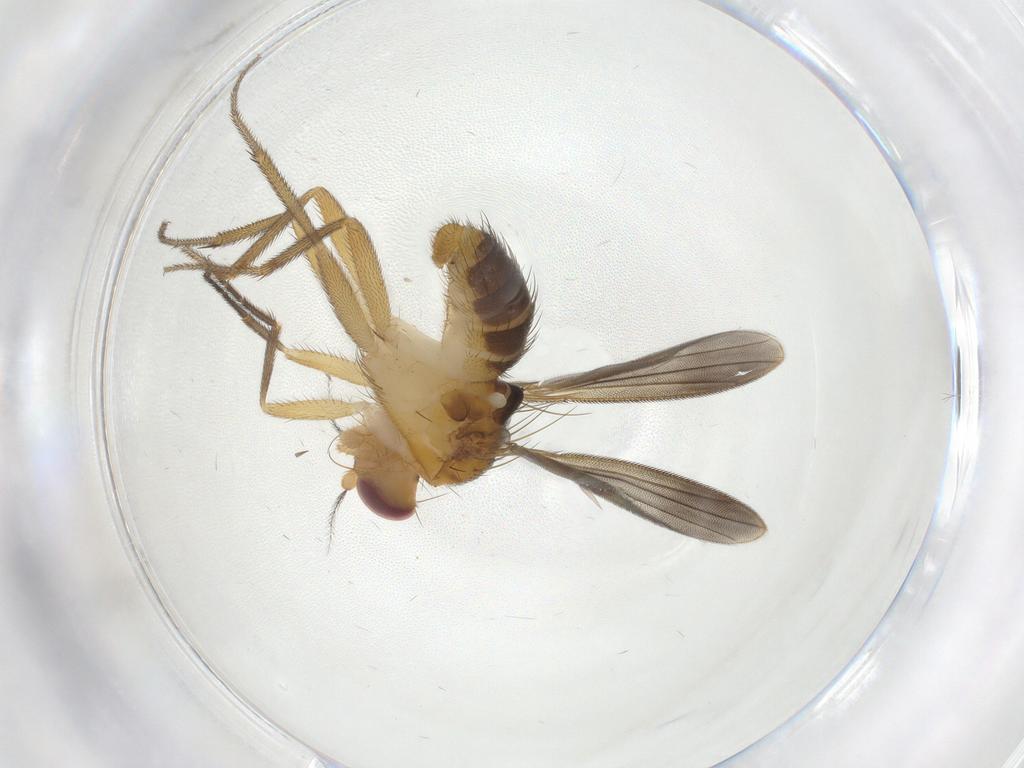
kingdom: Animalia
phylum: Arthropoda
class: Insecta
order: Diptera
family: Clusiidae
